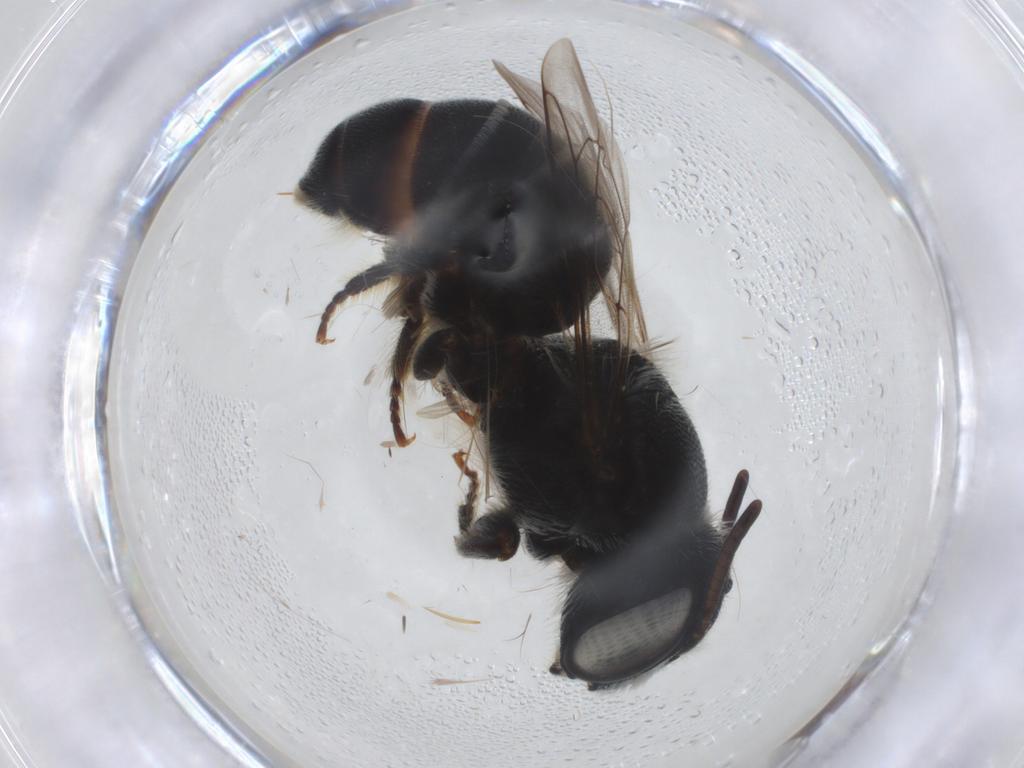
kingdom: Animalia
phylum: Arthropoda
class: Insecta
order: Hymenoptera
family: Megachilidae
